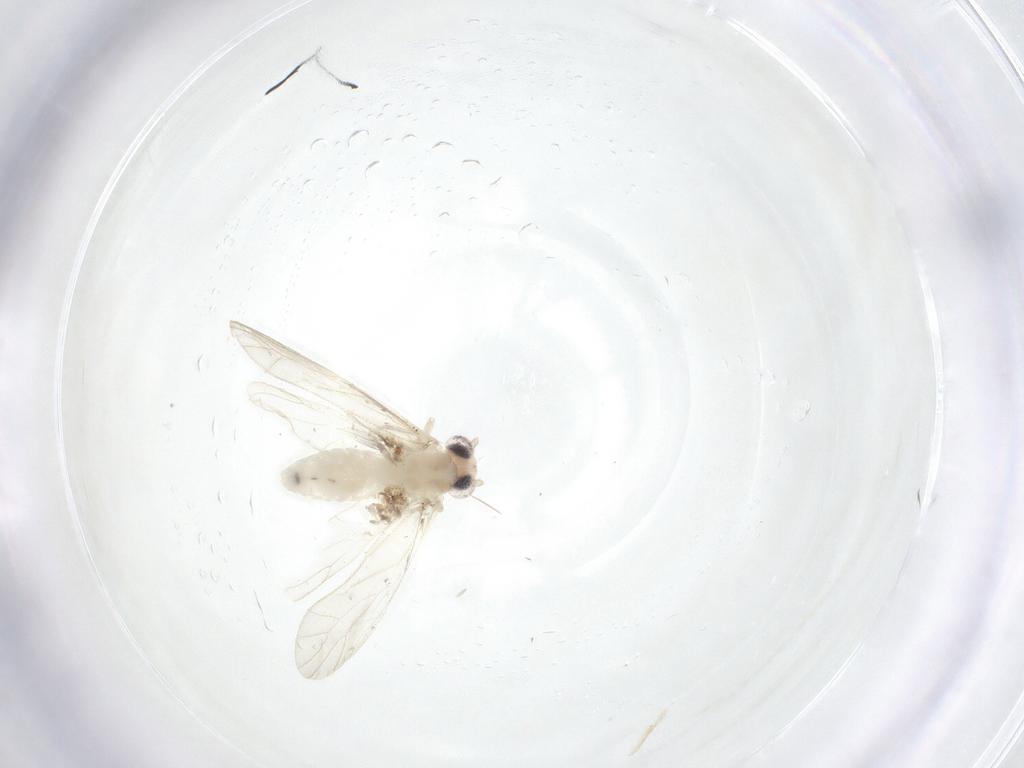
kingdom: Animalia
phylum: Arthropoda
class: Insecta
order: Psocodea
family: Caeciliusidae
